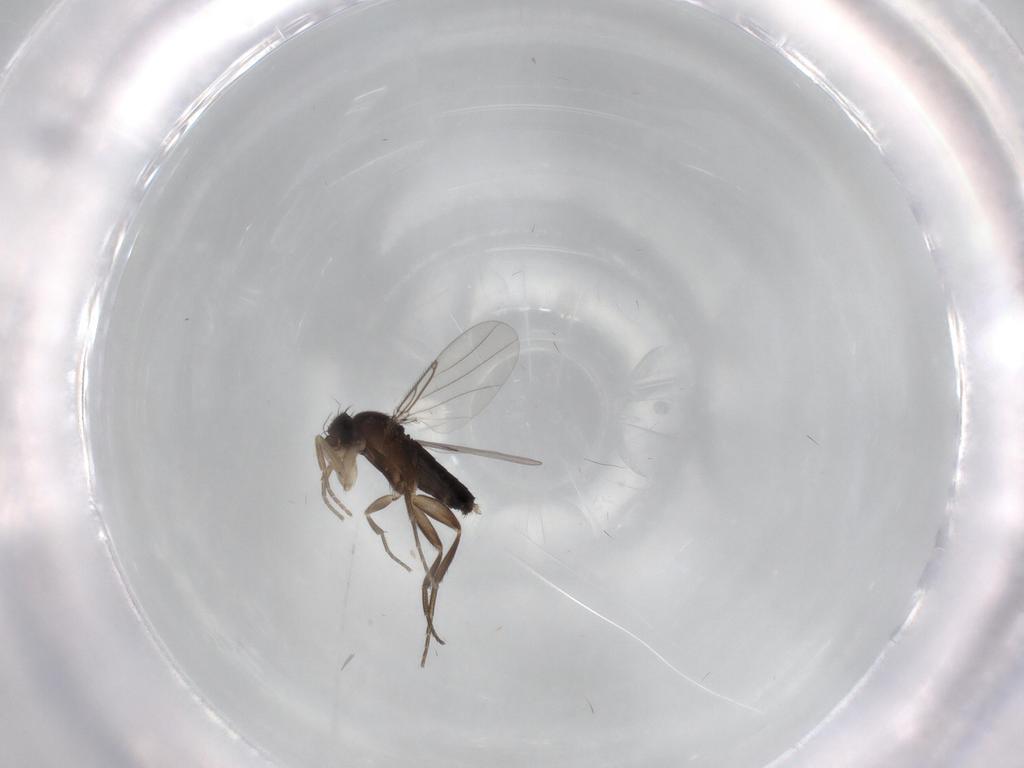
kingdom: Animalia
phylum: Arthropoda
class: Insecta
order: Diptera
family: Phoridae
